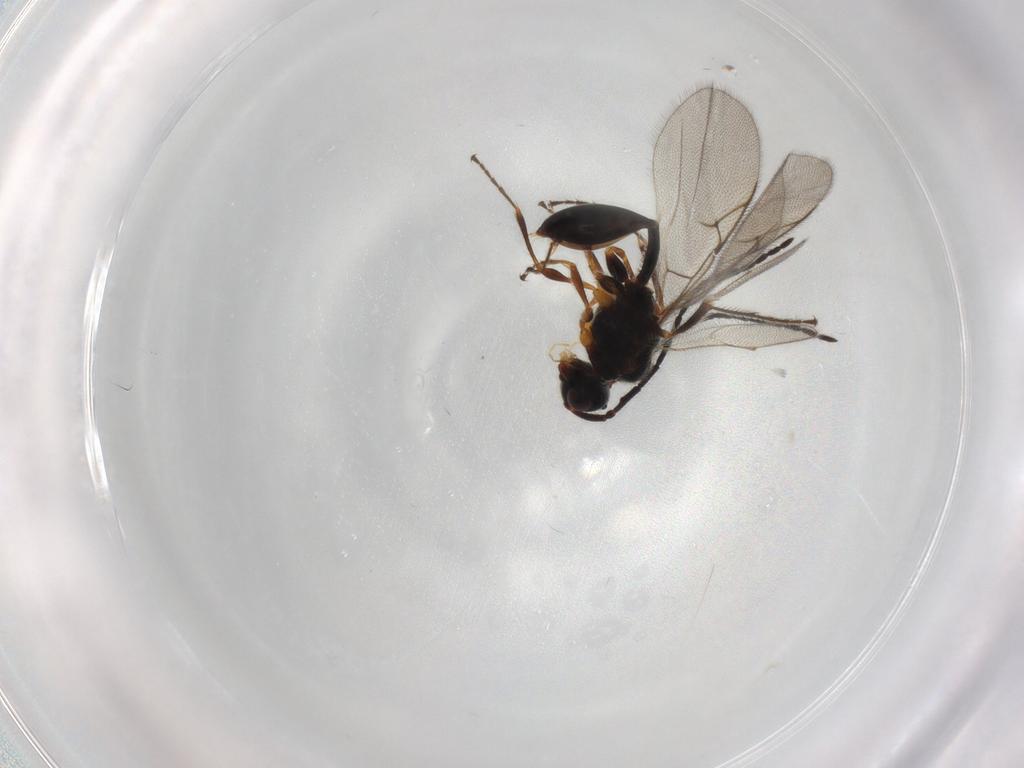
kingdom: Animalia
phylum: Arthropoda
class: Insecta
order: Hymenoptera
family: Diapriidae
